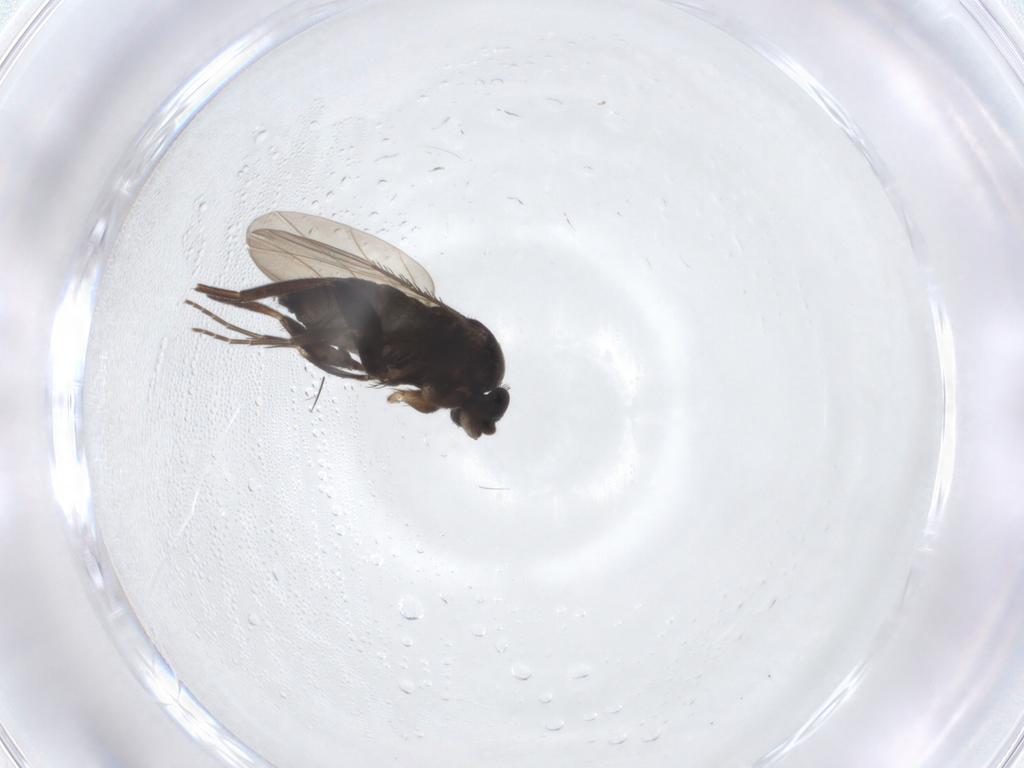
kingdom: Animalia
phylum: Arthropoda
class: Insecta
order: Diptera
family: Phoridae
